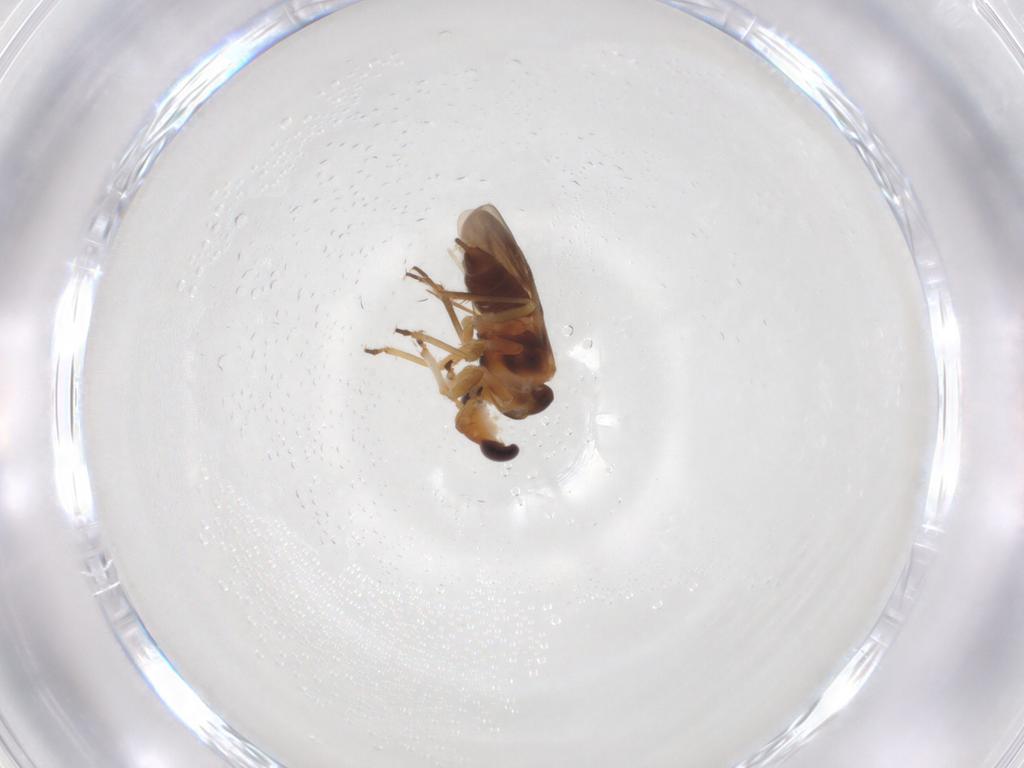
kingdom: Animalia
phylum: Arthropoda
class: Insecta
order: Hemiptera
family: Schizopteridae
